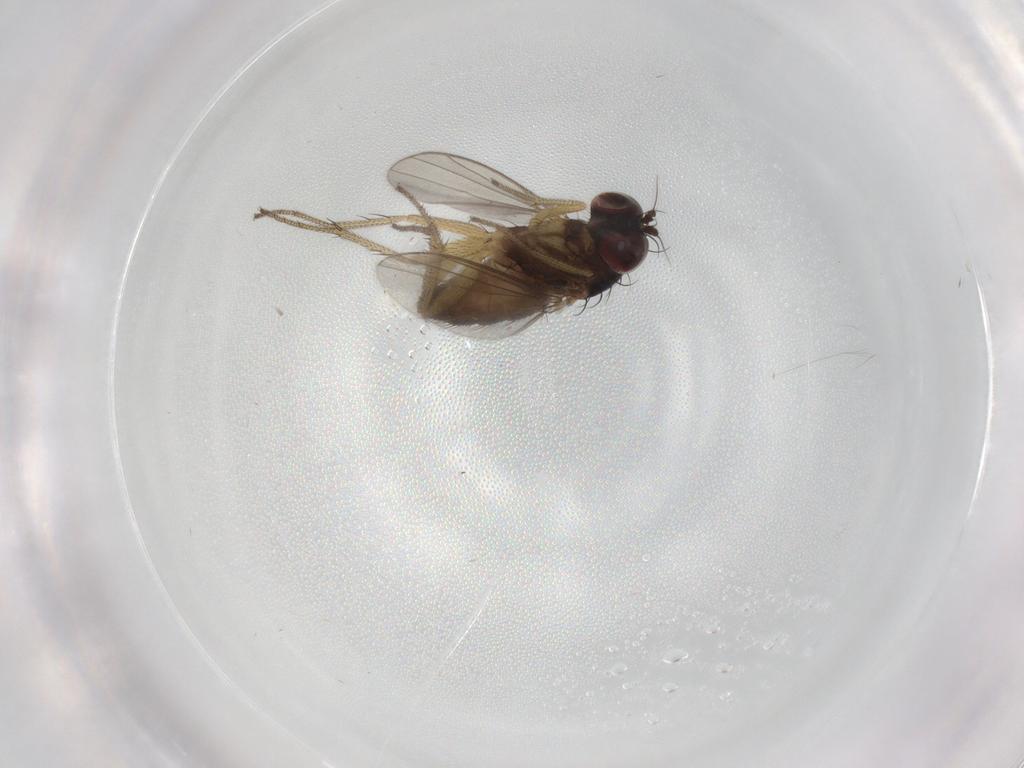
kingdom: Animalia
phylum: Arthropoda
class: Insecta
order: Diptera
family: Dolichopodidae
